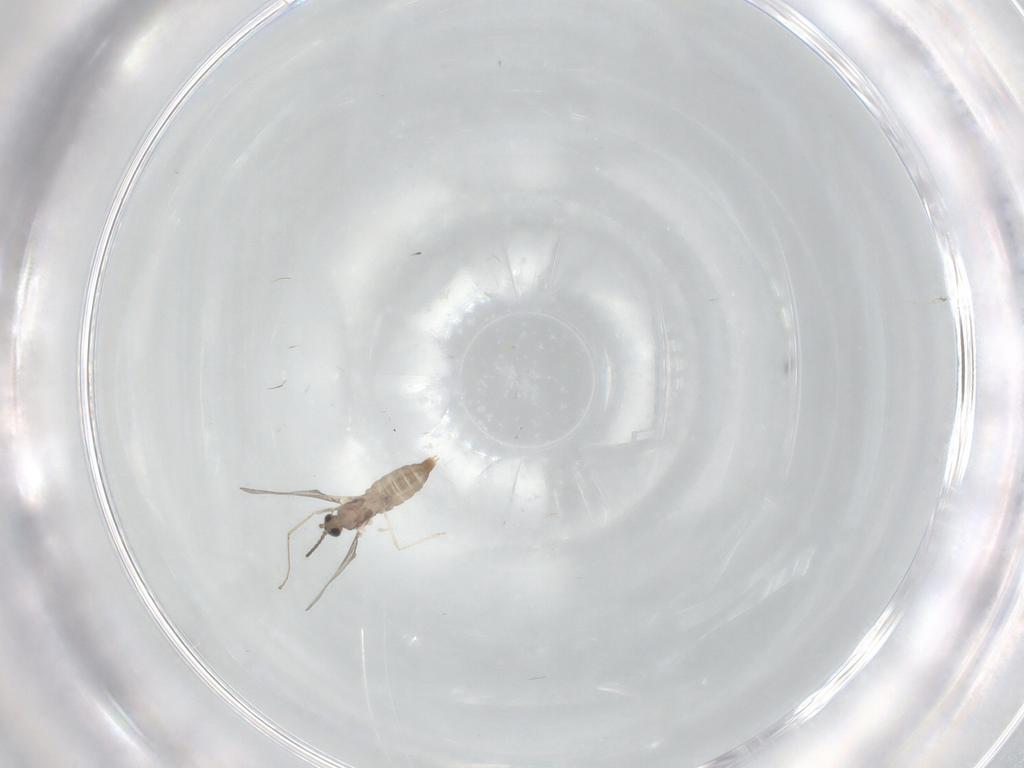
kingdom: Animalia
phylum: Arthropoda
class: Insecta
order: Diptera
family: Cecidomyiidae
